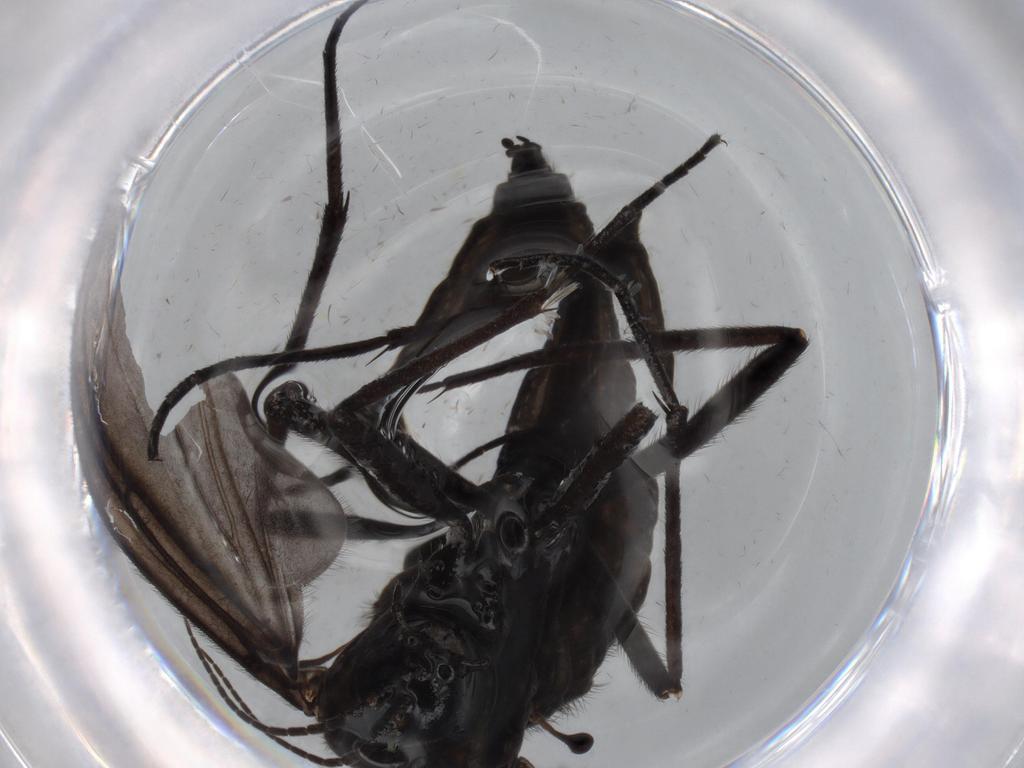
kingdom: Animalia
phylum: Arthropoda
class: Insecta
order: Diptera
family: Sciaridae
